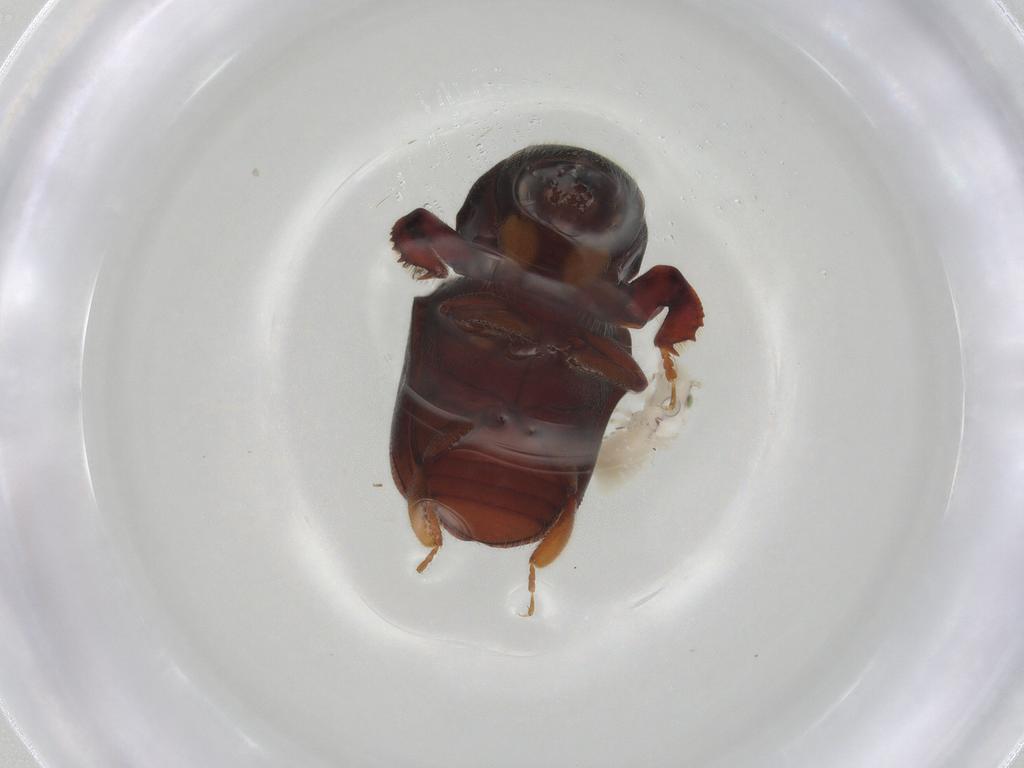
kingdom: Animalia
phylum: Arthropoda
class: Insecta
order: Coleoptera
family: Curculionidae
